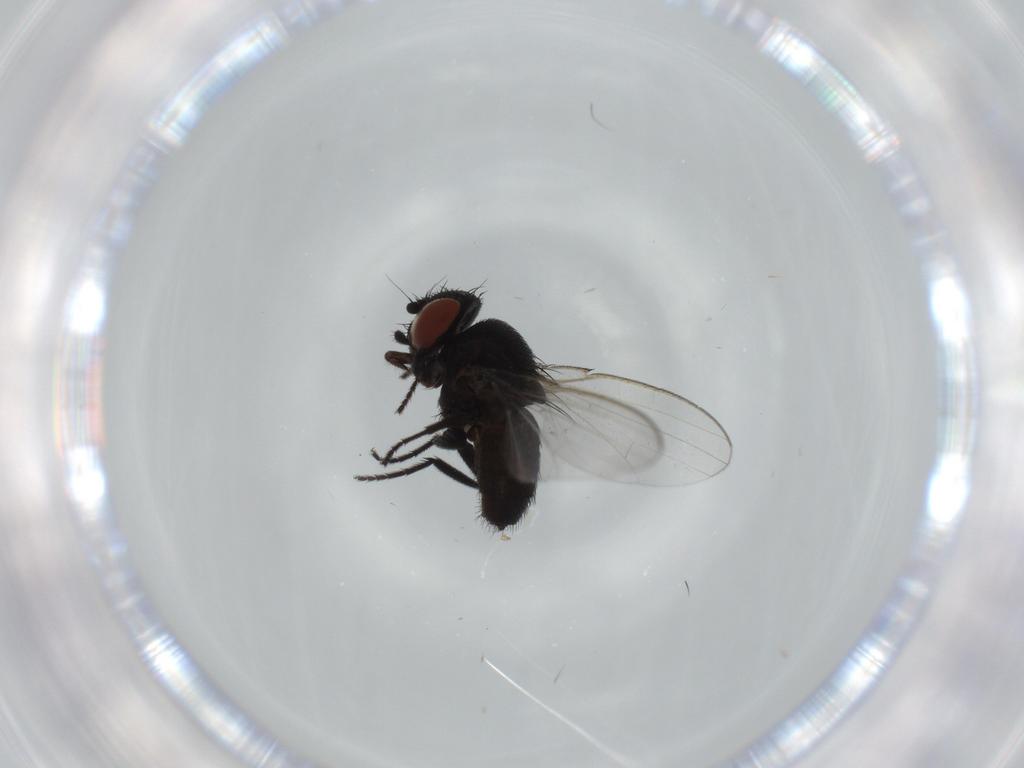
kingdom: Animalia
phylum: Arthropoda
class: Insecta
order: Diptera
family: Milichiidae
